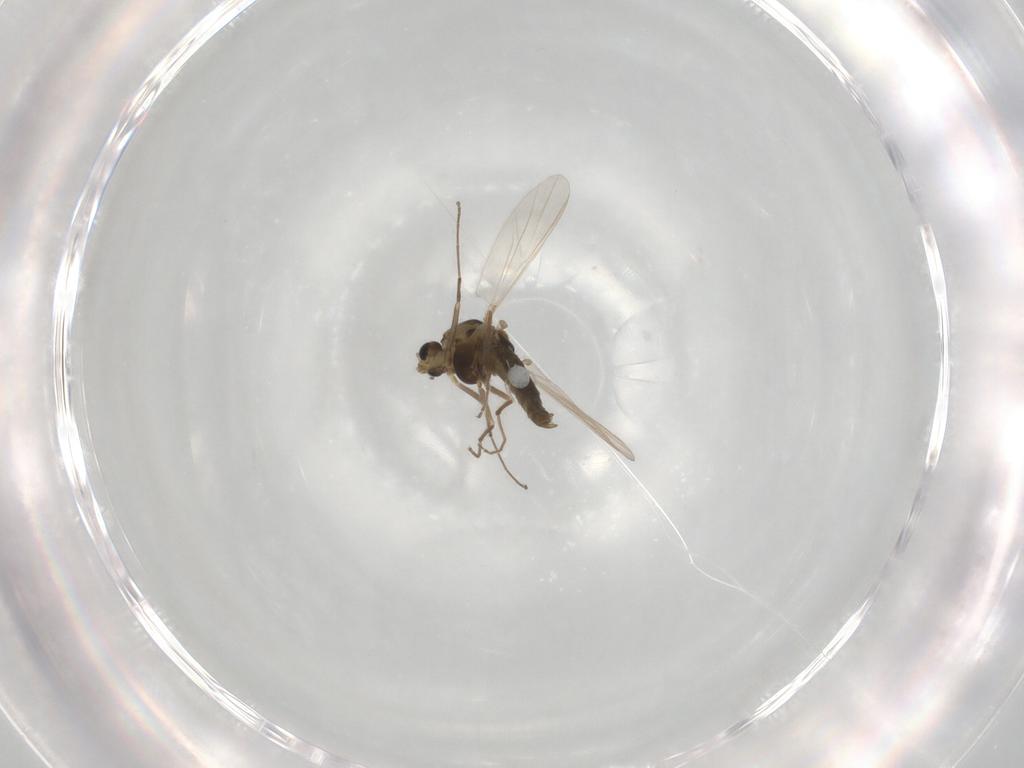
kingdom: Animalia
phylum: Arthropoda
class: Insecta
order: Diptera
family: Chironomidae
